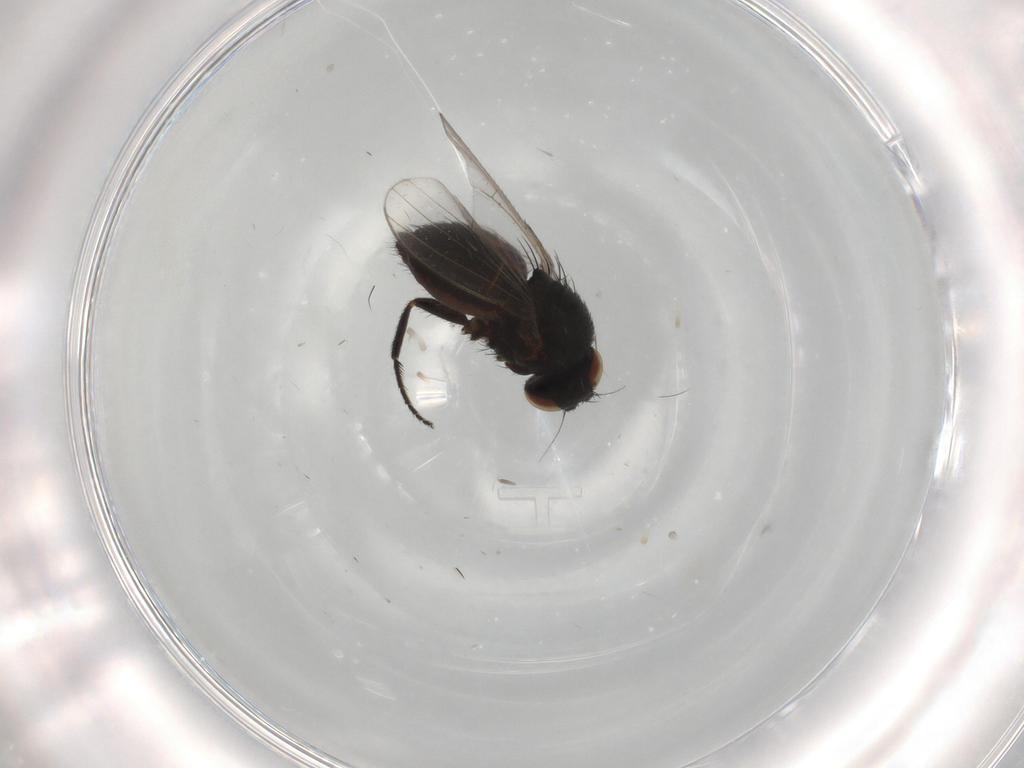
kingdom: Animalia
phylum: Arthropoda
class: Insecta
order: Diptera
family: Milichiidae
